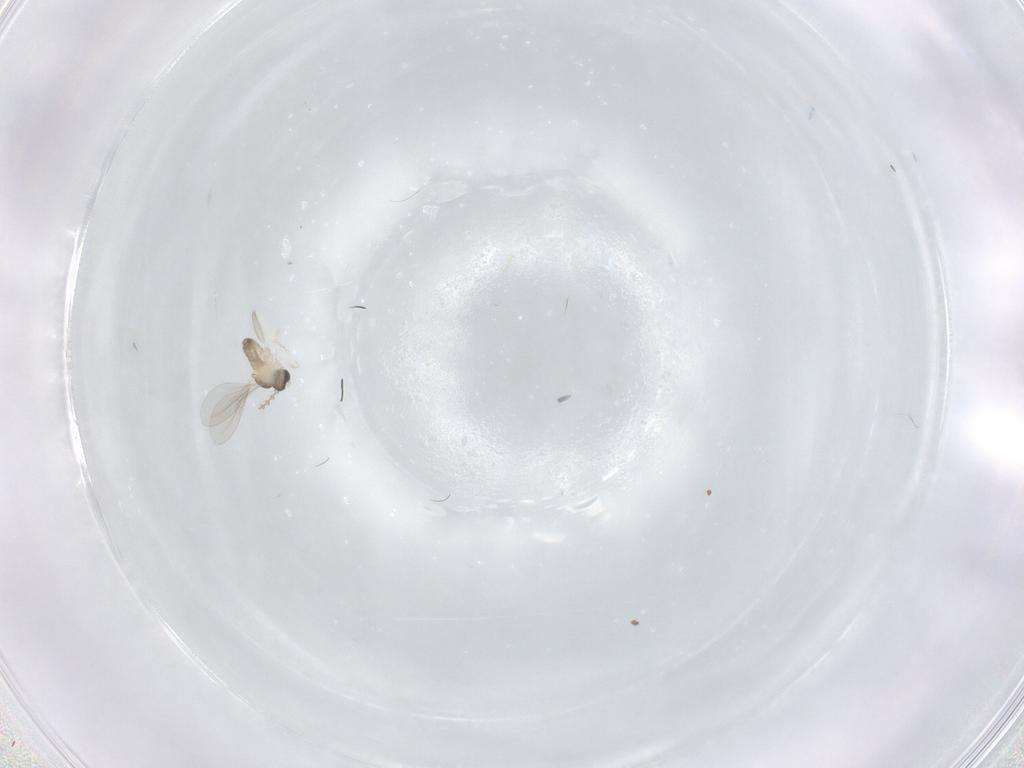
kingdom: Animalia
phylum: Arthropoda
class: Insecta
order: Diptera
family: Cecidomyiidae
